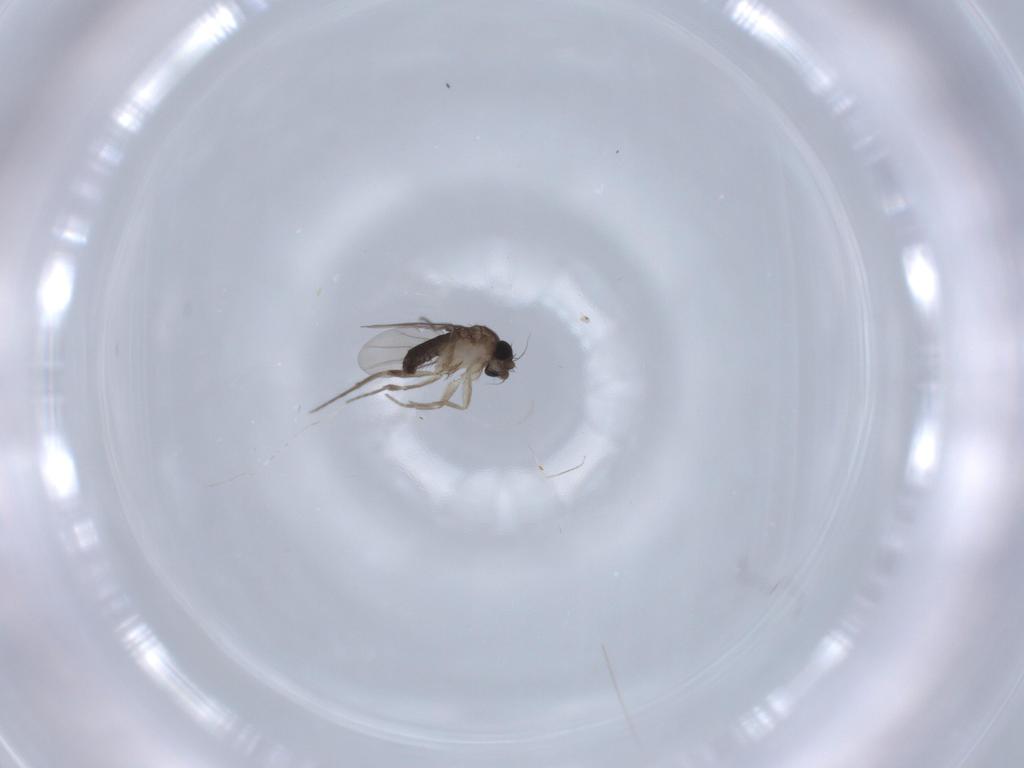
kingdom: Animalia
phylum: Arthropoda
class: Insecta
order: Diptera
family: Phoridae
